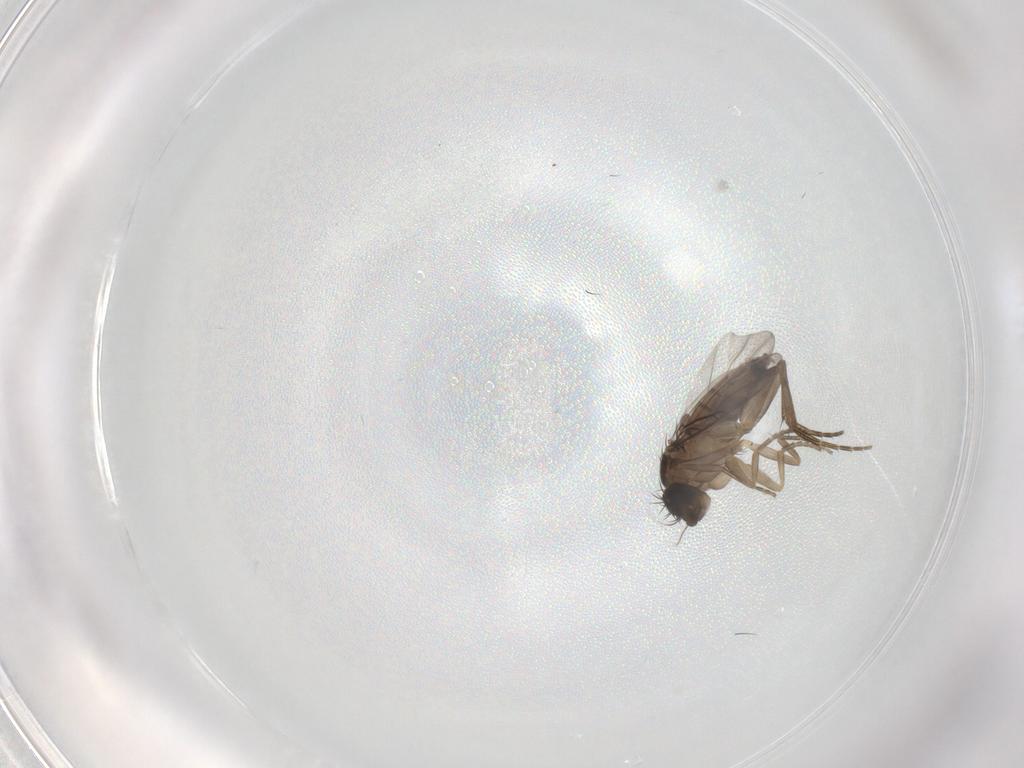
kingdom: Animalia
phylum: Arthropoda
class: Insecta
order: Diptera
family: Phoridae
